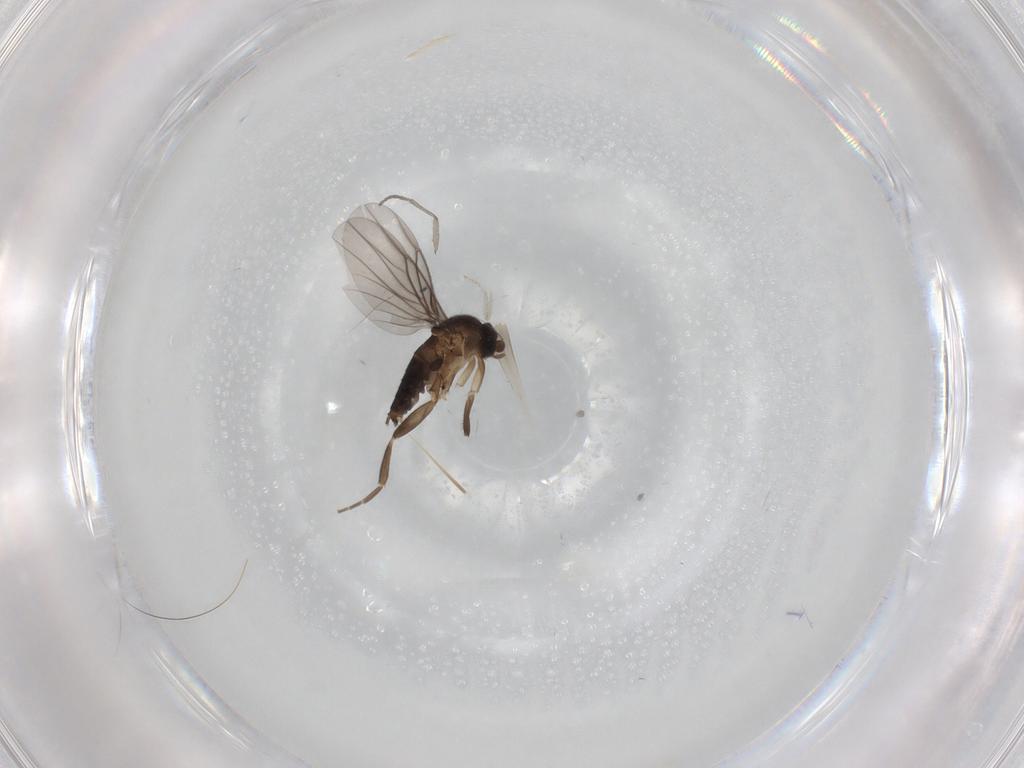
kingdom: Animalia
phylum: Arthropoda
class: Insecta
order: Diptera
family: Sciaridae
